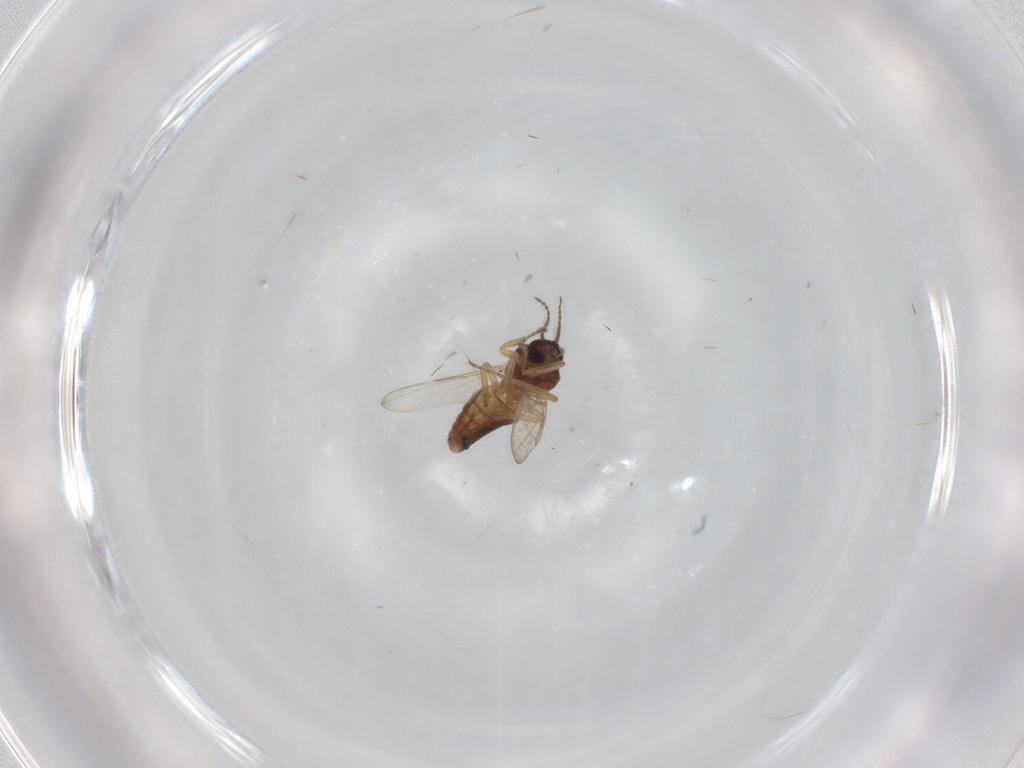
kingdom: Animalia
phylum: Arthropoda
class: Insecta
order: Diptera
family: Ceratopogonidae
